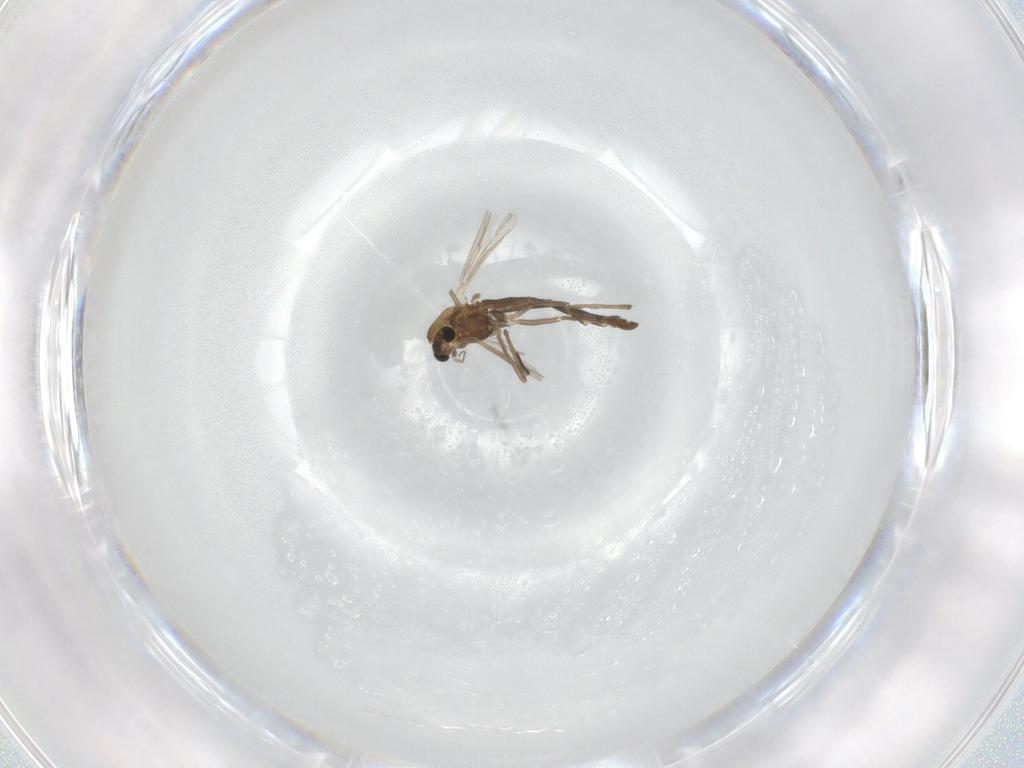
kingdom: Animalia
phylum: Arthropoda
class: Insecta
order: Diptera
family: Chironomidae
